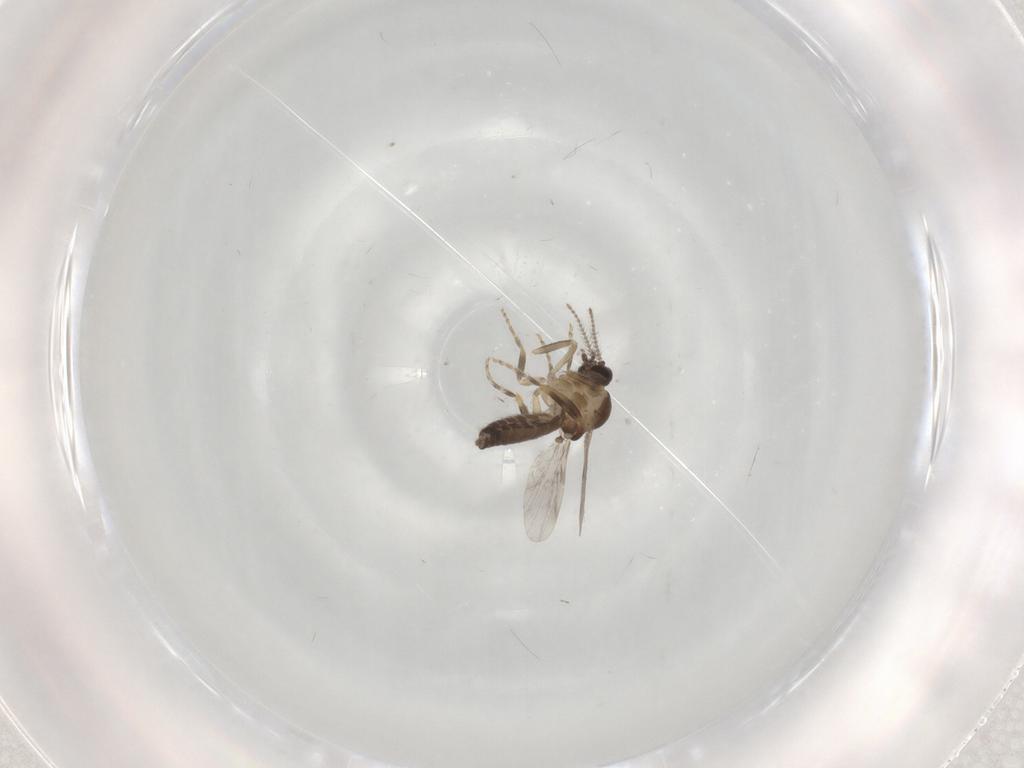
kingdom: Animalia
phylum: Arthropoda
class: Insecta
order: Diptera
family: Ceratopogonidae
